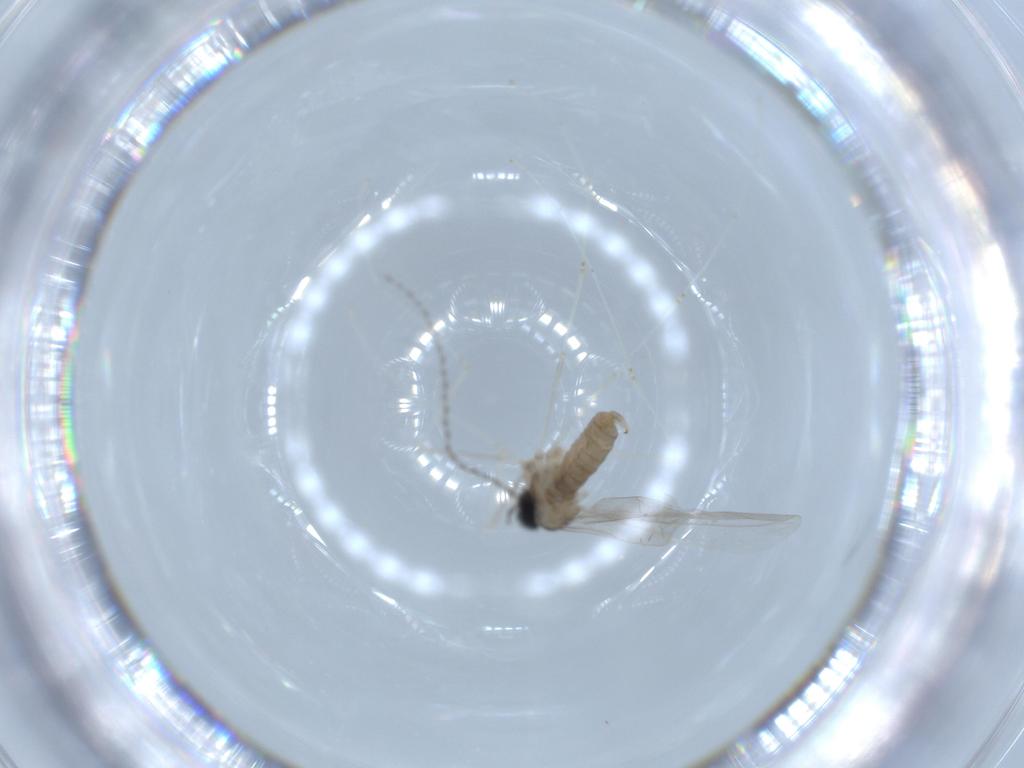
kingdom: Animalia
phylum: Arthropoda
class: Insecta
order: Diptera
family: Cecidomyiidae
